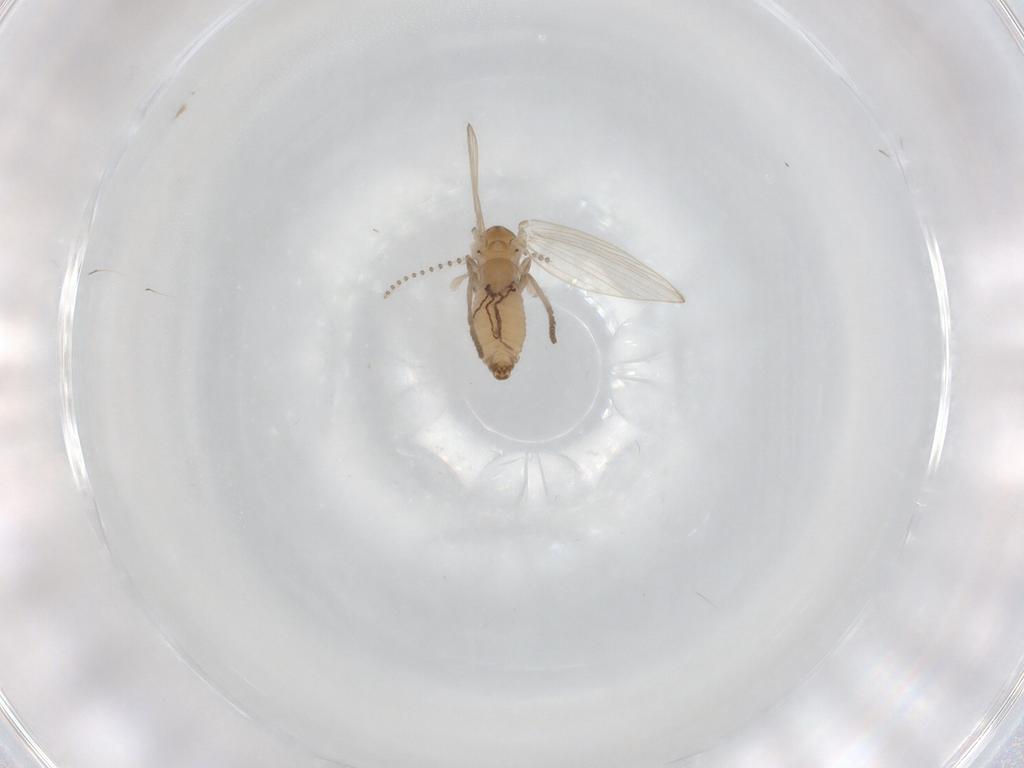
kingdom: Animalia
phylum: Arthropoda
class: Insecta
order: Diptera
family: Psychodidae
